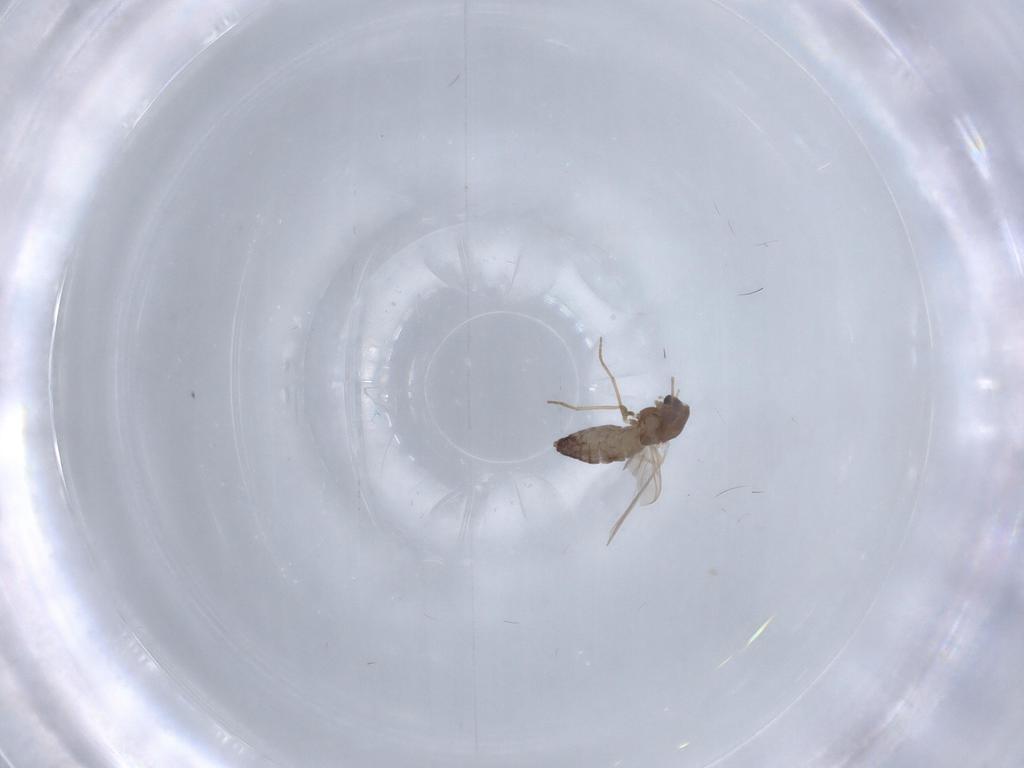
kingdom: Animalia
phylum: Arthropoda
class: Insecta
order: Diptera
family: Chironomidae
